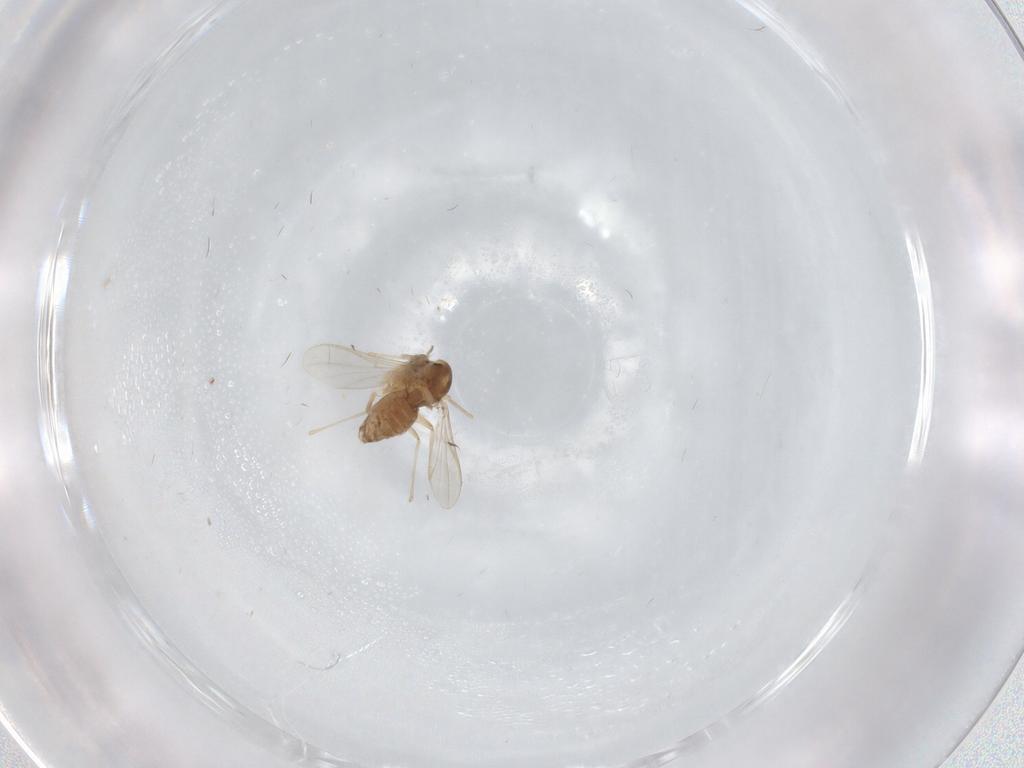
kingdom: Animalia
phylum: Arthropoda
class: Insecta
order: Diptera
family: Chironomidae
